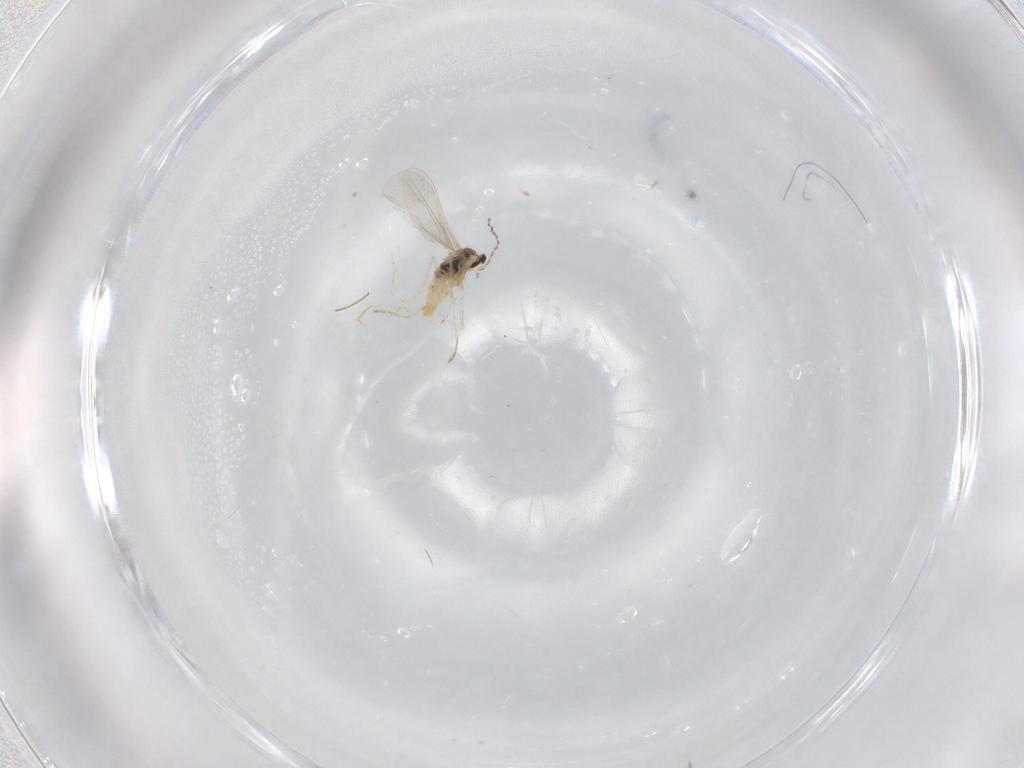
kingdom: Animalia
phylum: Arthropoda
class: Insecta
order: Diptera
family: Cecidomyiidae
